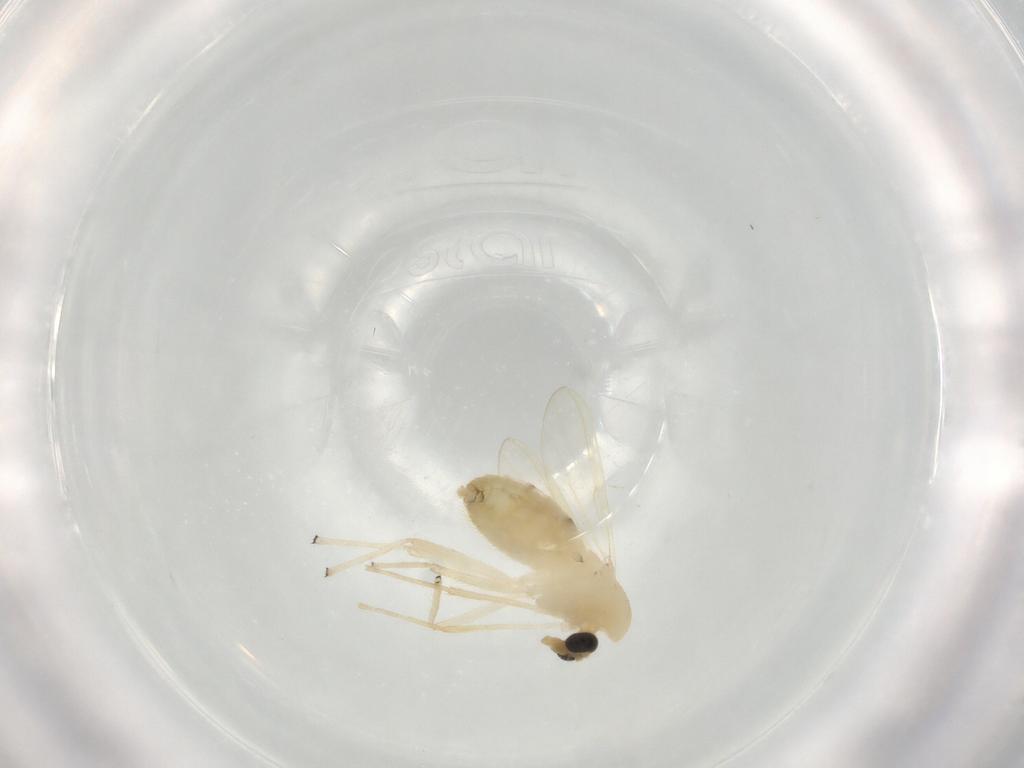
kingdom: Animalia
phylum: Arthropoda
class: Insecta
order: Diptera
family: Chironomidae
